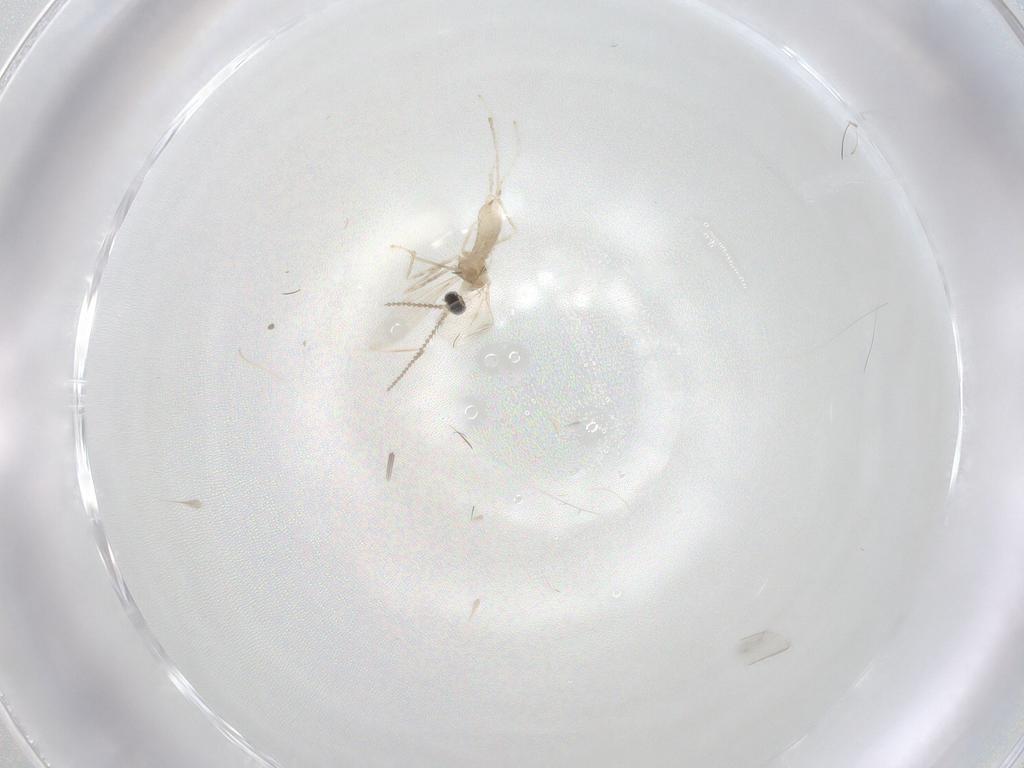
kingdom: Animalia
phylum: Arthropoda
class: Insecta
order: Diptera
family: Cecidomyiidae
